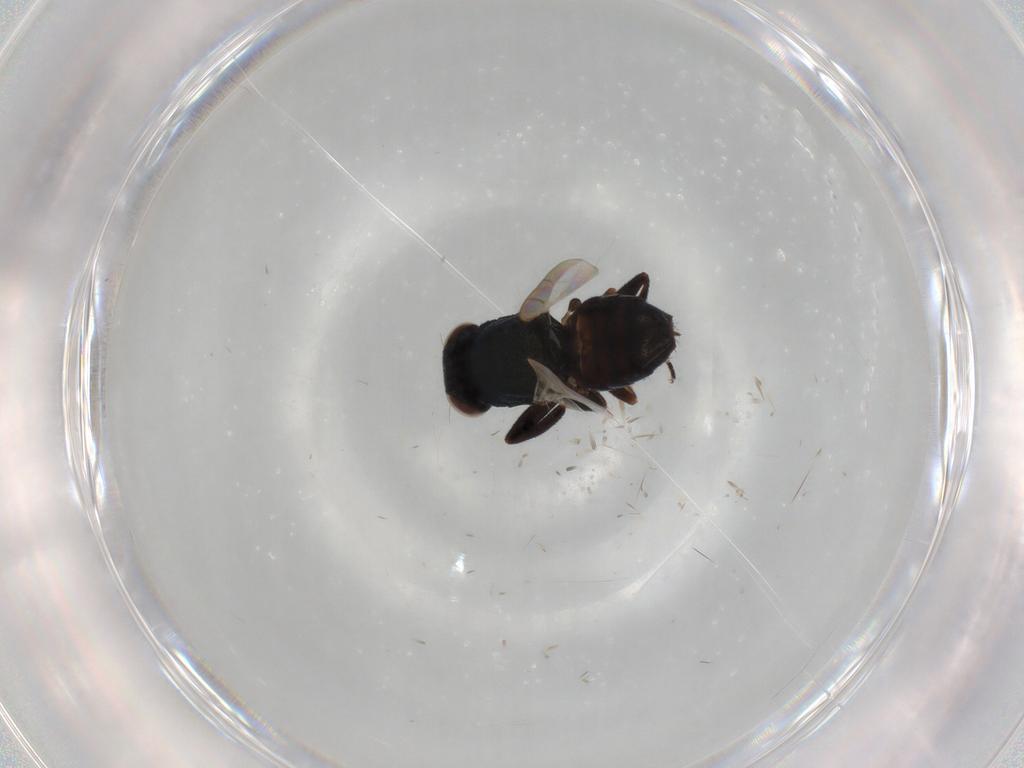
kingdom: Animalia
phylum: Arthropoda
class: Insecta
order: Diptera
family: Chloropidae
